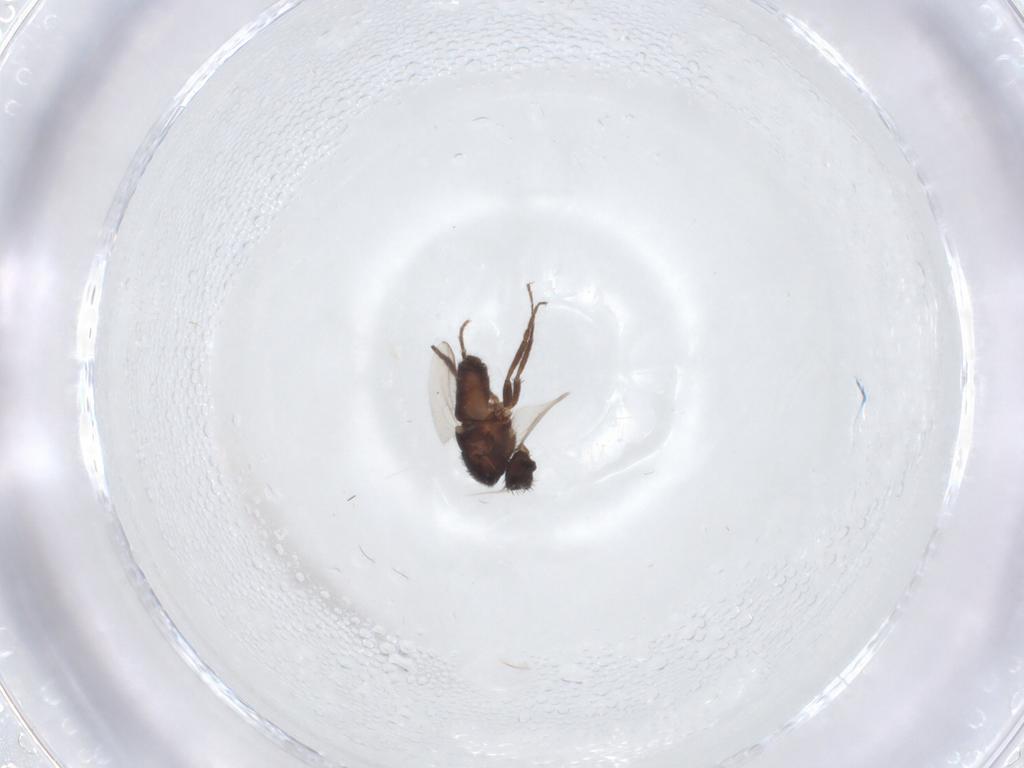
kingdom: Animalia
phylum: Arthropoda
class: Insecta
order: Diptera
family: Sphaeroceridae
